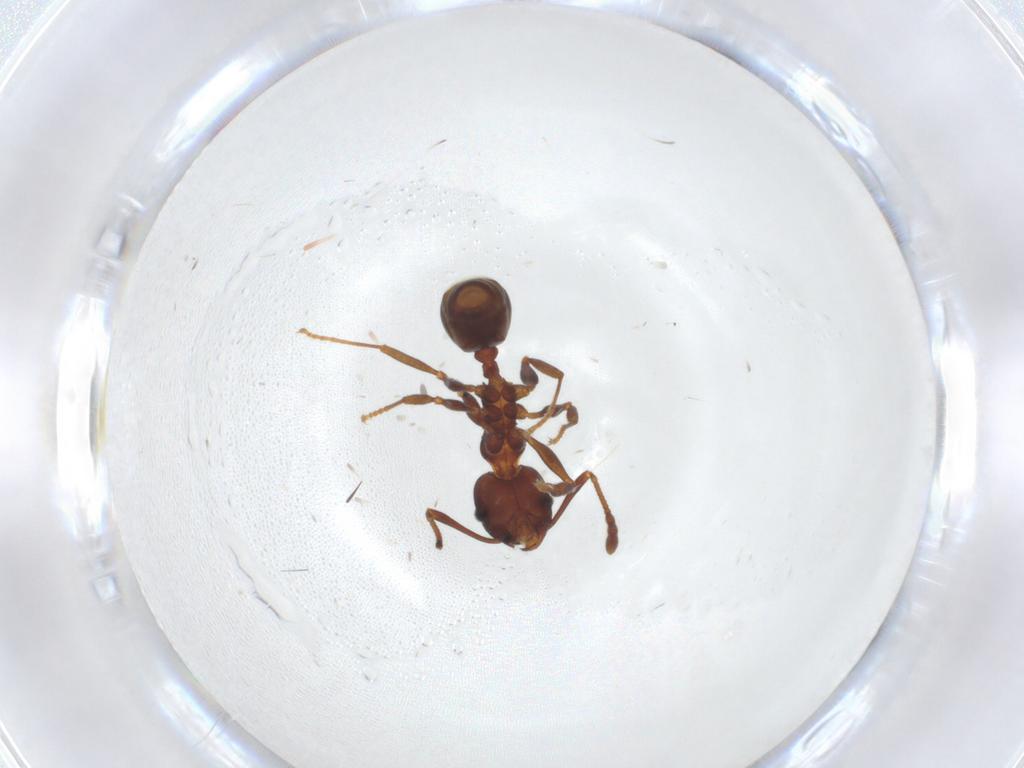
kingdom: Animalia
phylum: Arthropoda
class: Insecta
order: Hymenoptera
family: Formicidae
